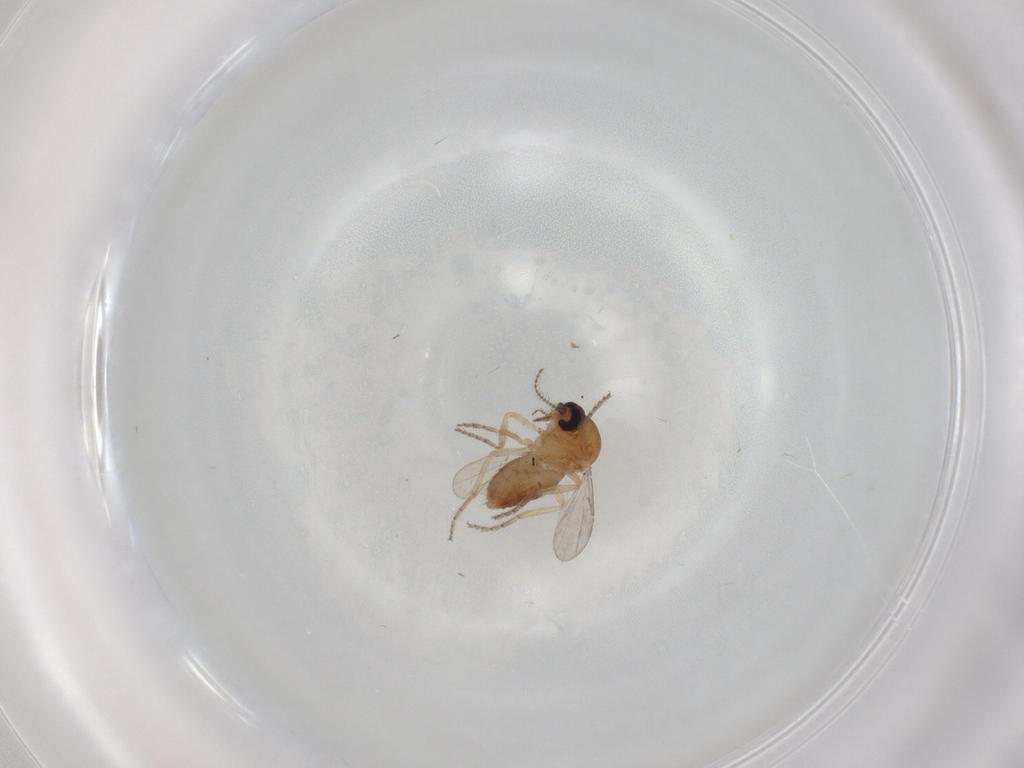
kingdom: Animalia
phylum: Arthropoda
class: Insecta
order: Diptera
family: Ceratopogonidae
